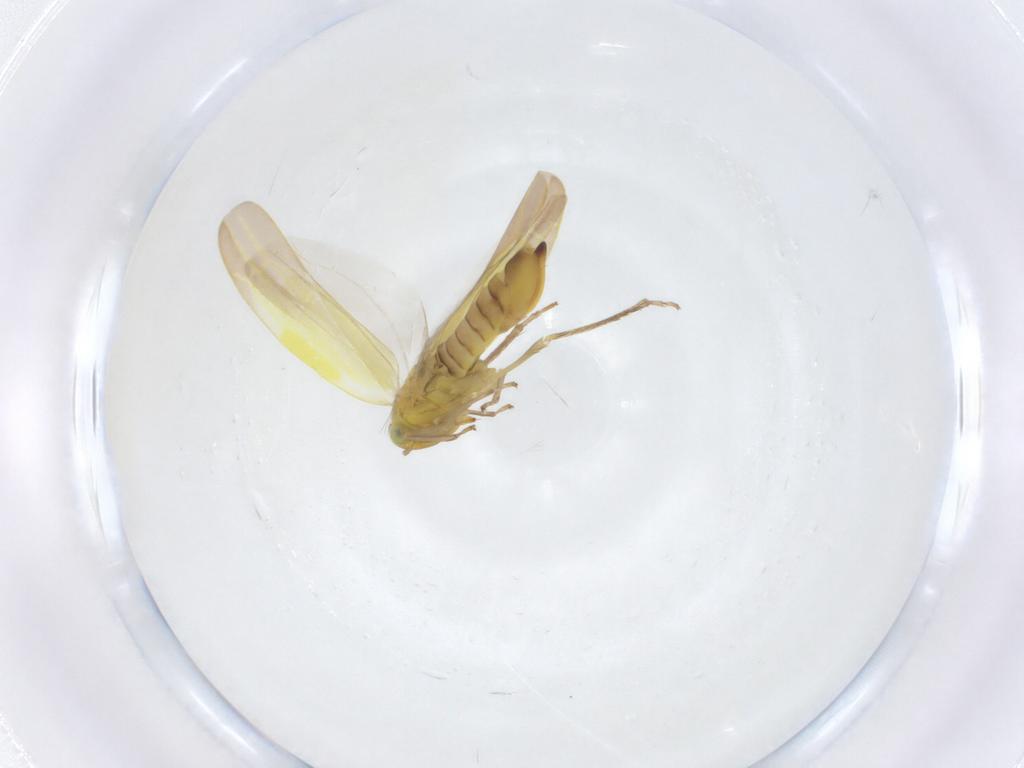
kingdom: Animalia
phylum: Arthropoda
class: Insecta
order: Hemiptera
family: Cicadellidae
